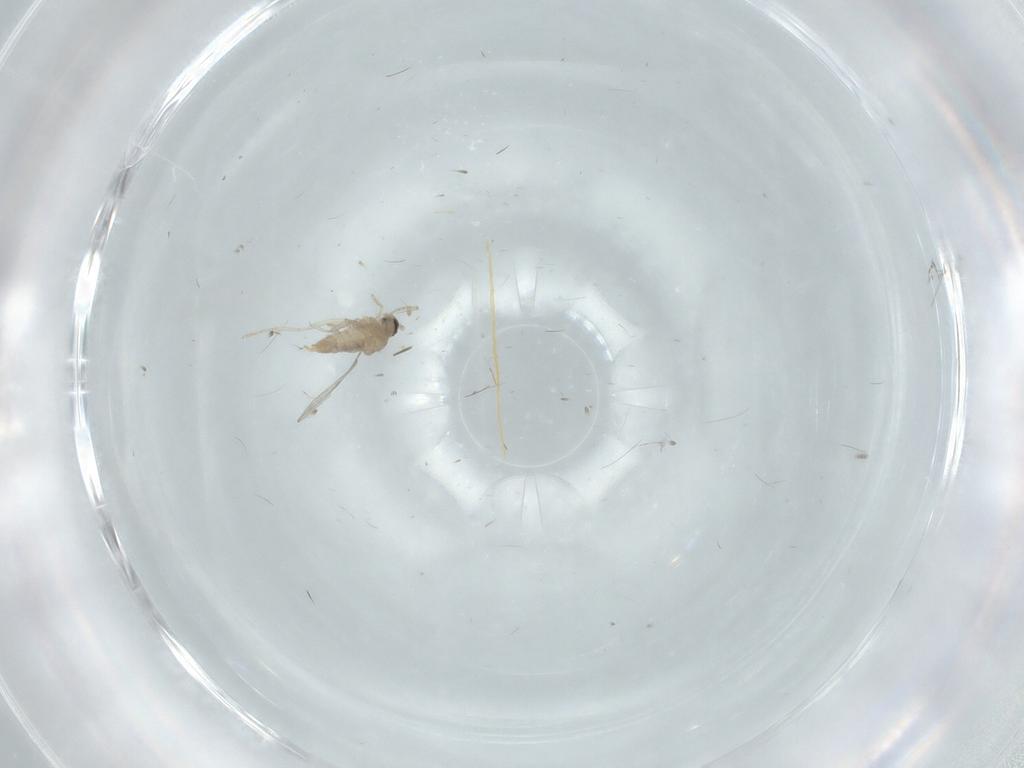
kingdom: Animalia
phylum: Arthropoda
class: Insecta
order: Diptera
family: Cecidomyiidae
